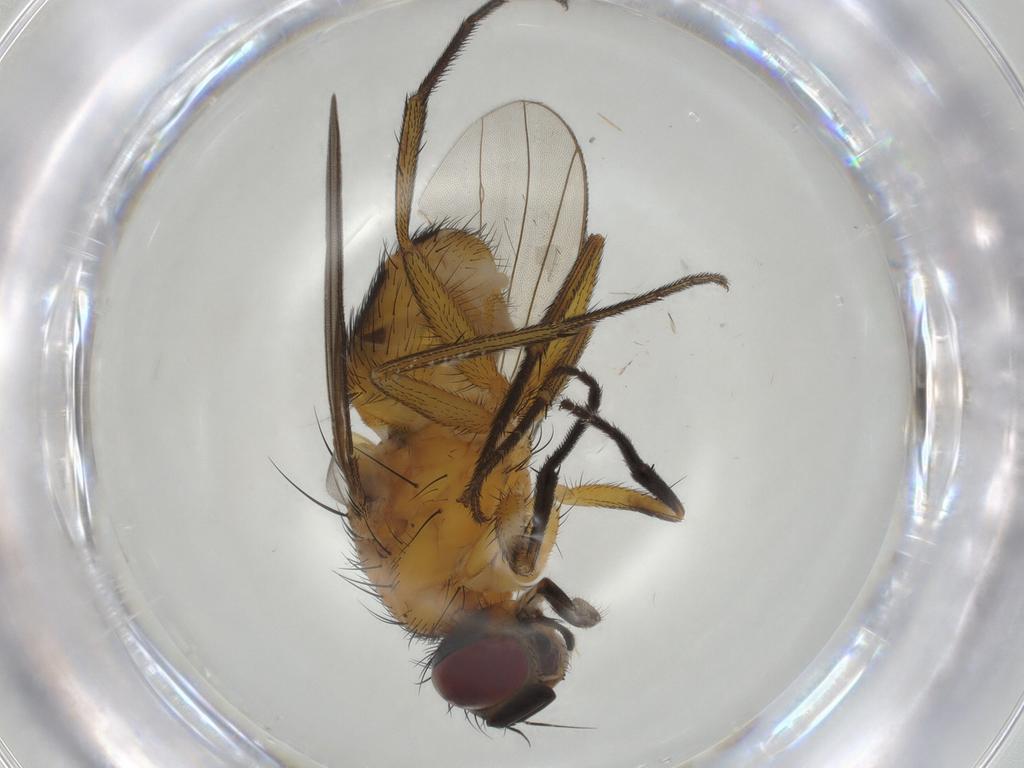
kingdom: Animalia
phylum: Arthropoda
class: Insecta
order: Diptera
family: Muscidae
